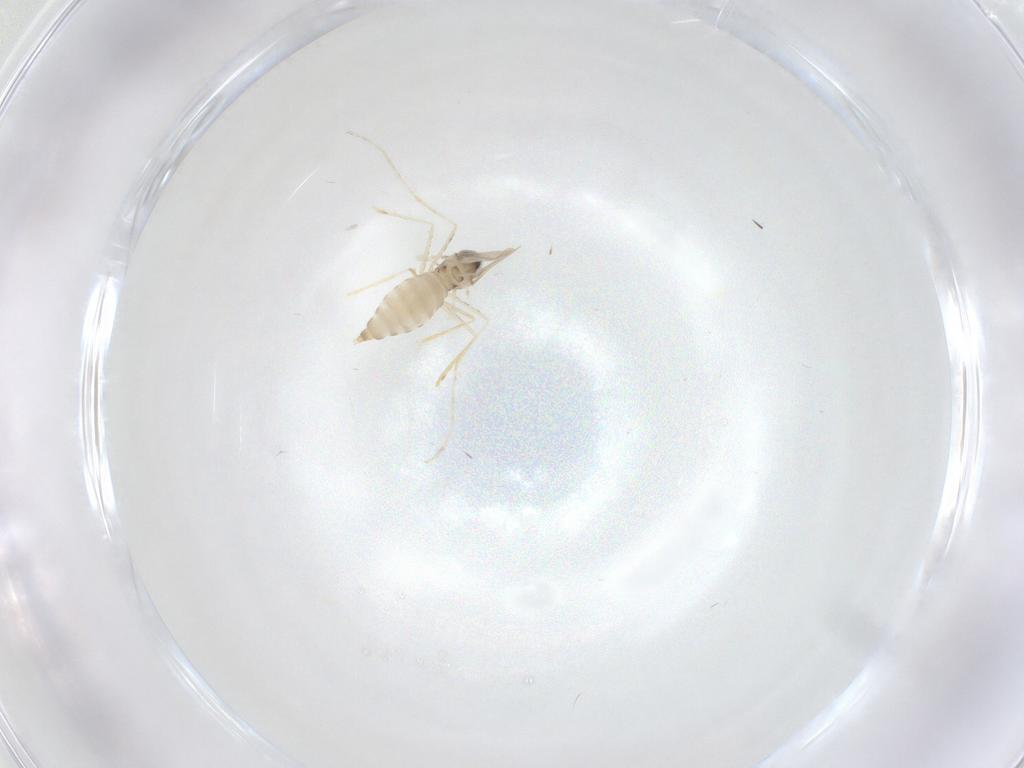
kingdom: Animalia
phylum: Arthropoda
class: Insecta
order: Diptera
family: Cecidomyiidae
